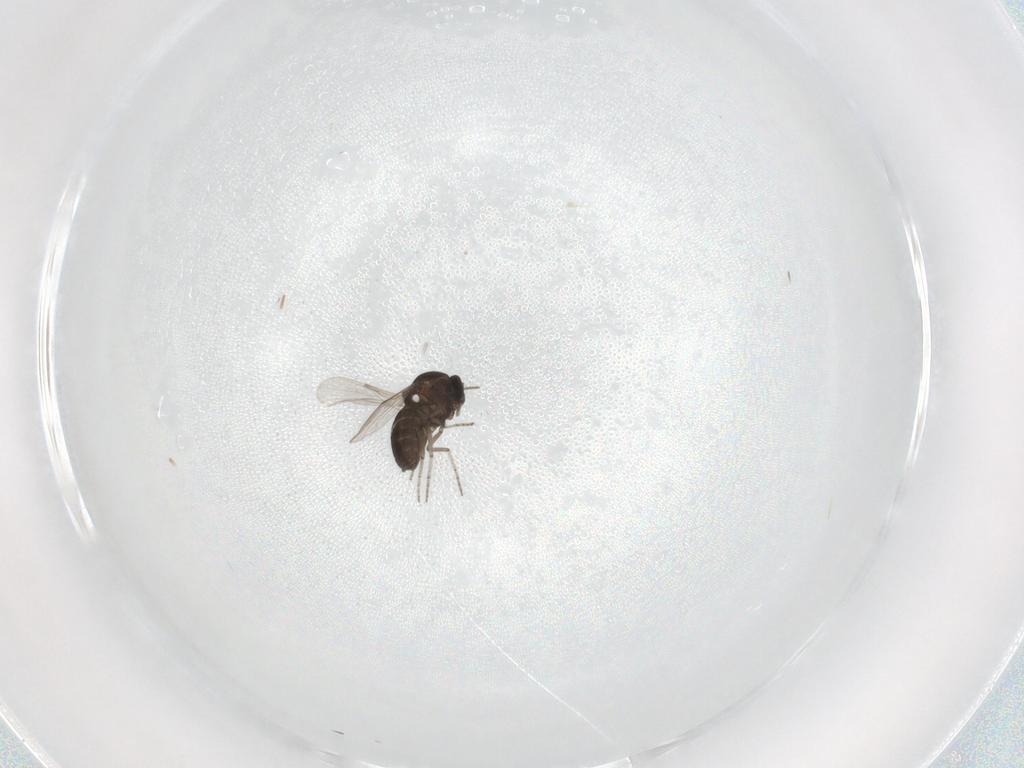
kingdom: Animalia
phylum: Arthropoda
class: Insecta
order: Diptera
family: Ceratopogonidae
